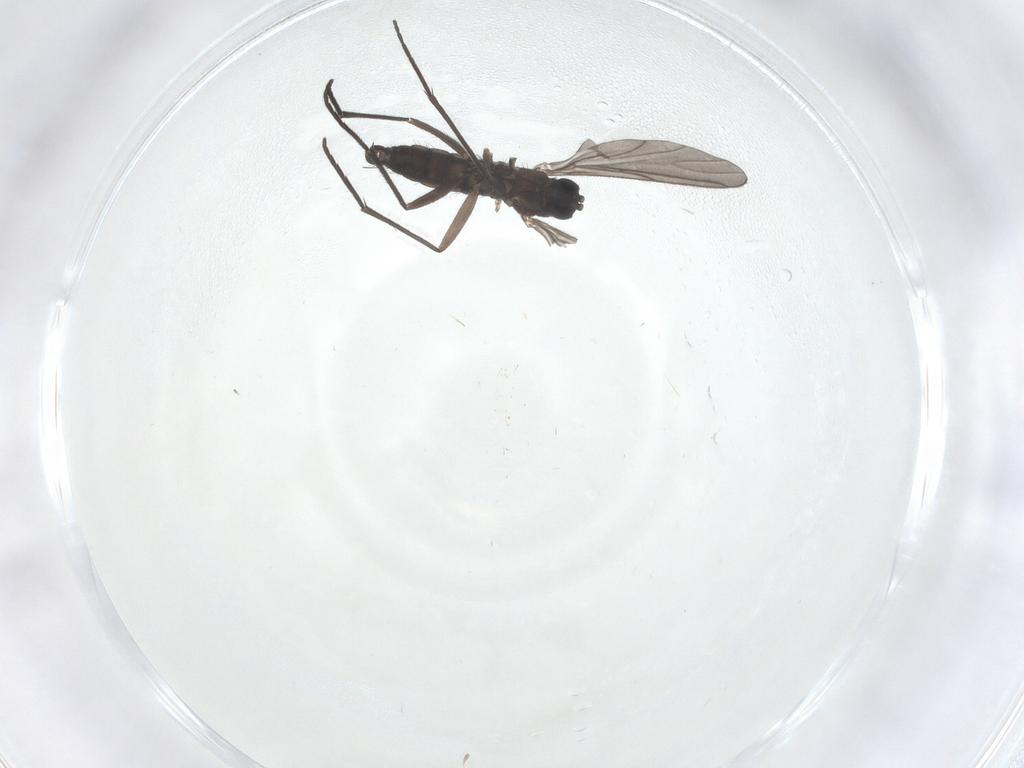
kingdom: Animalia
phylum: Arthropoda
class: Insecta
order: Diptera
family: Sciaridae
